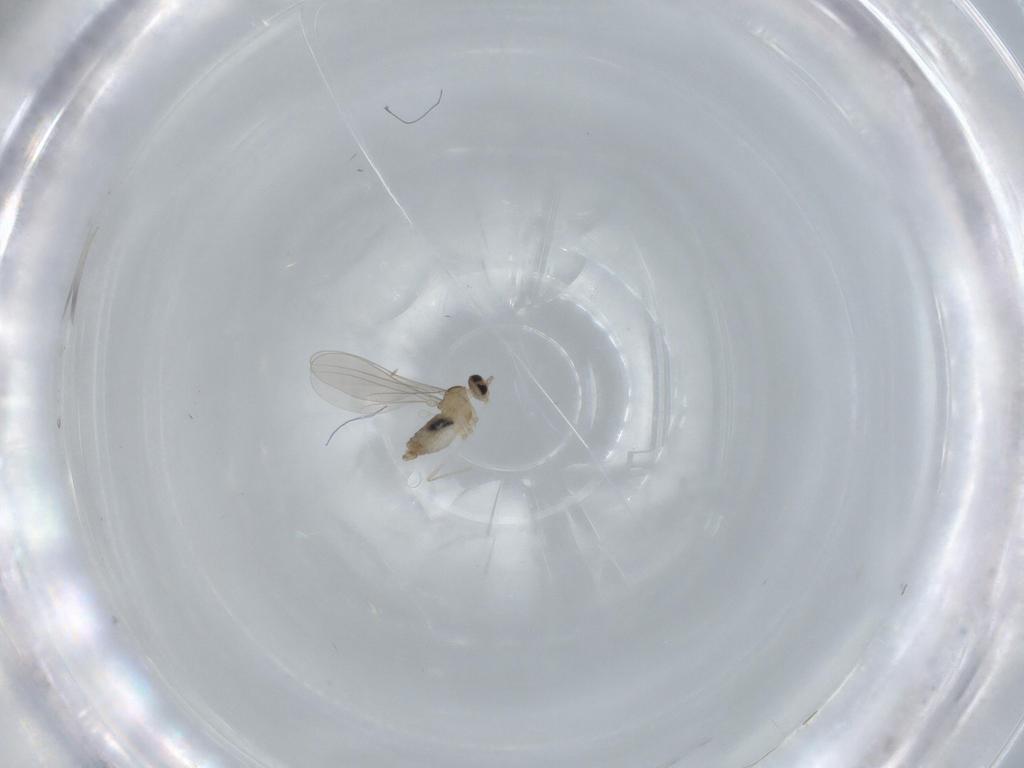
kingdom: Animalia
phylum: Arthropoda
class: Insecta
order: Diptera
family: Cecidomyiidae
